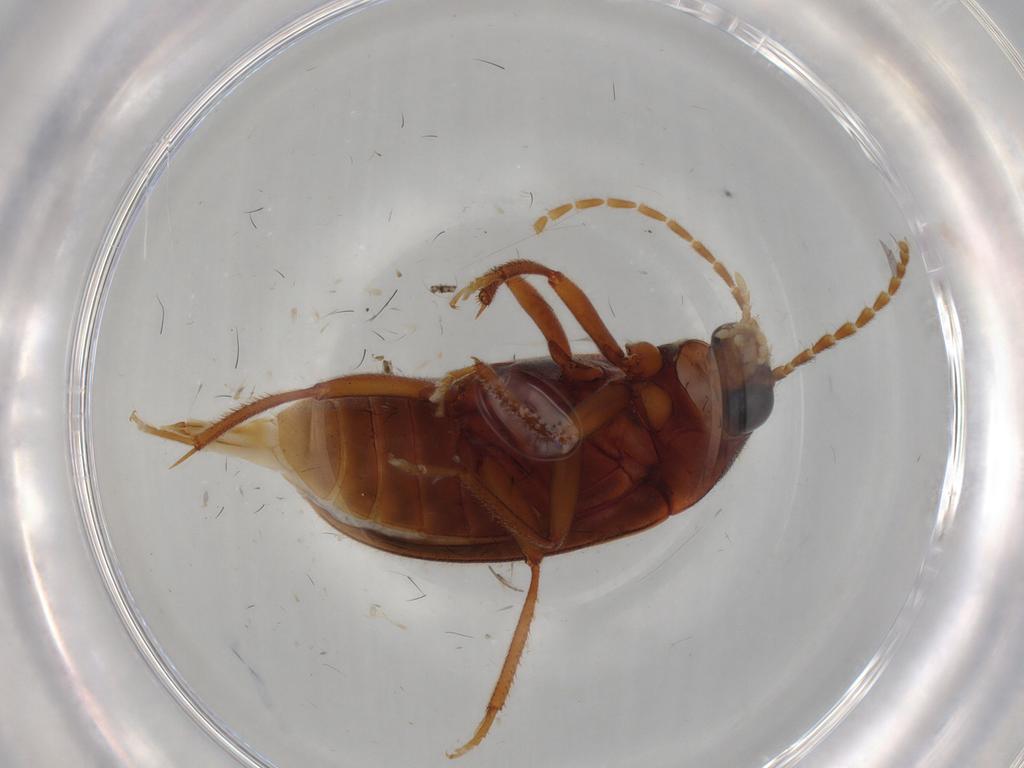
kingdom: Animalia
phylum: Arthropoda
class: Insecta
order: Coleoptera
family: Ptilodactylidae
